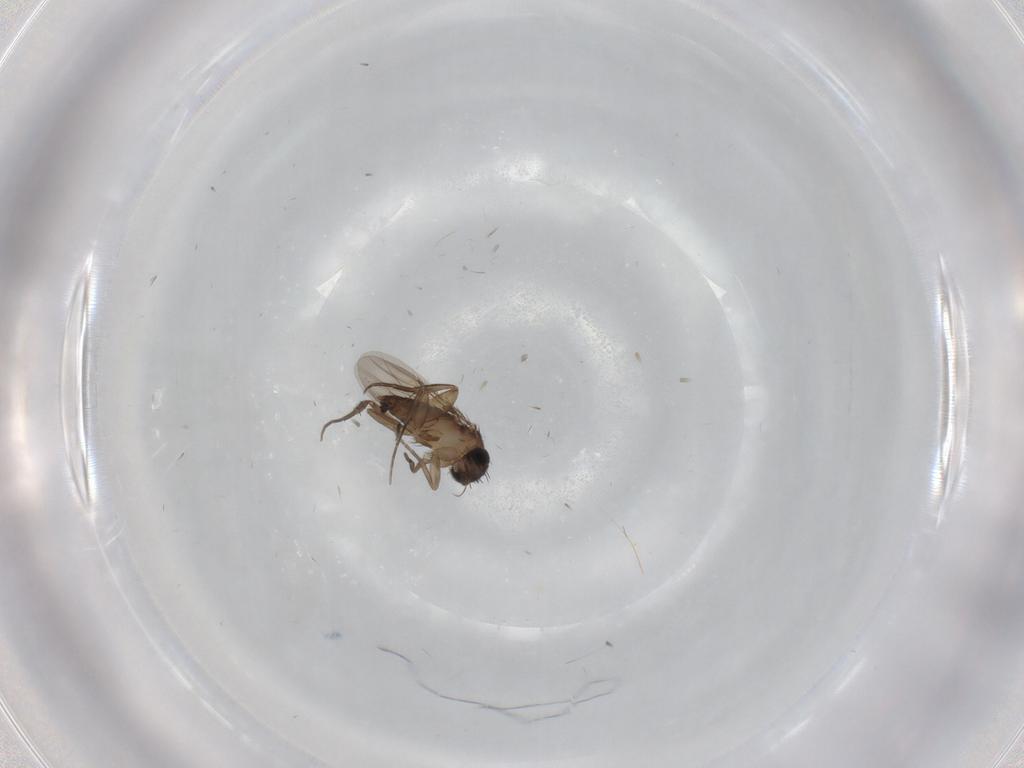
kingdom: Animalia
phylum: Arthropoda
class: Insecta
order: Diptera
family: Phoridae
